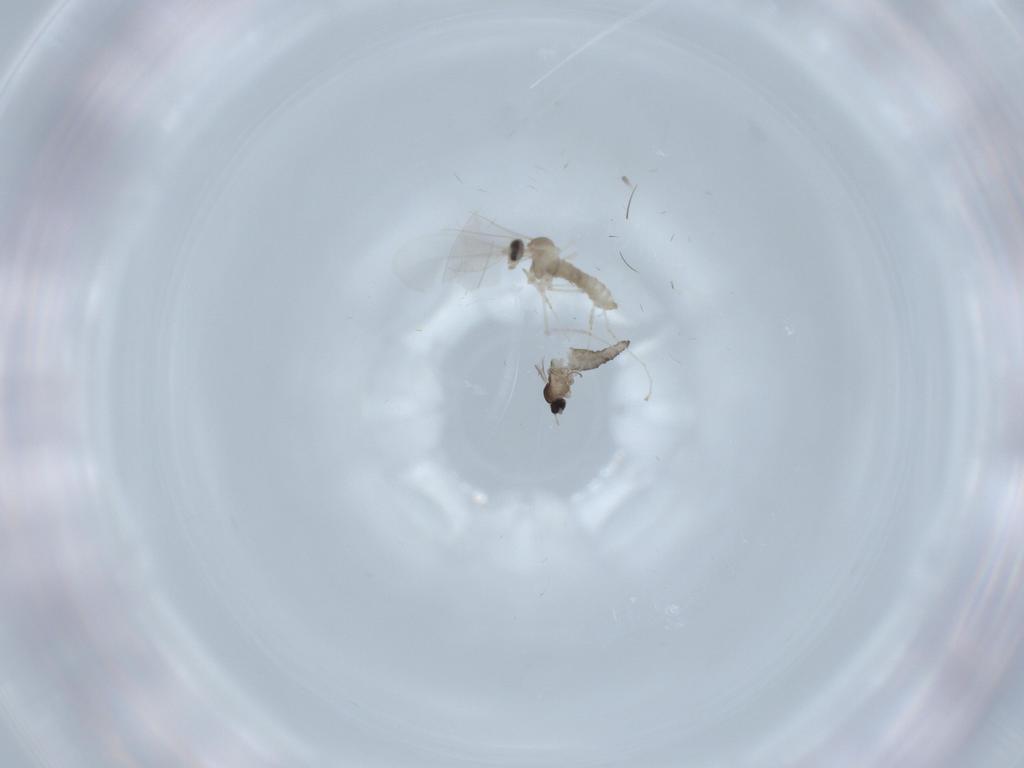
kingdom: Animalia
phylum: Arthropoda
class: Insecta
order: Diptera
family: Cecidomyiidae
